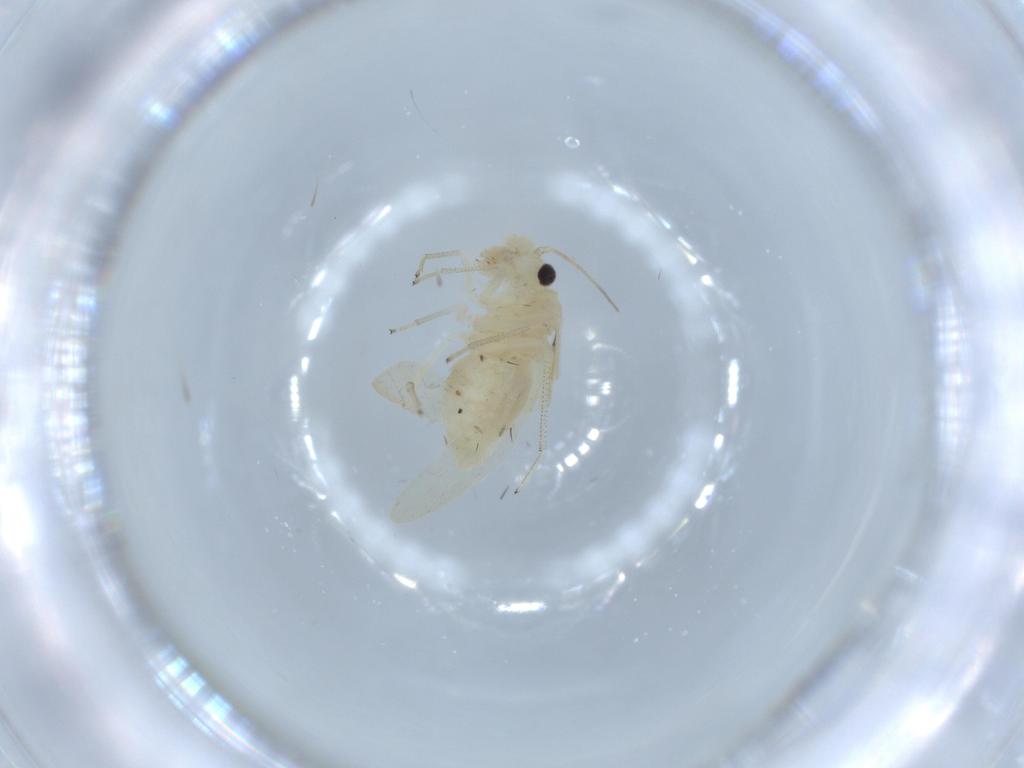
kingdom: Animalia
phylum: Arthropoda
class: Insecta
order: Psocodea
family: Caeciliusidae
